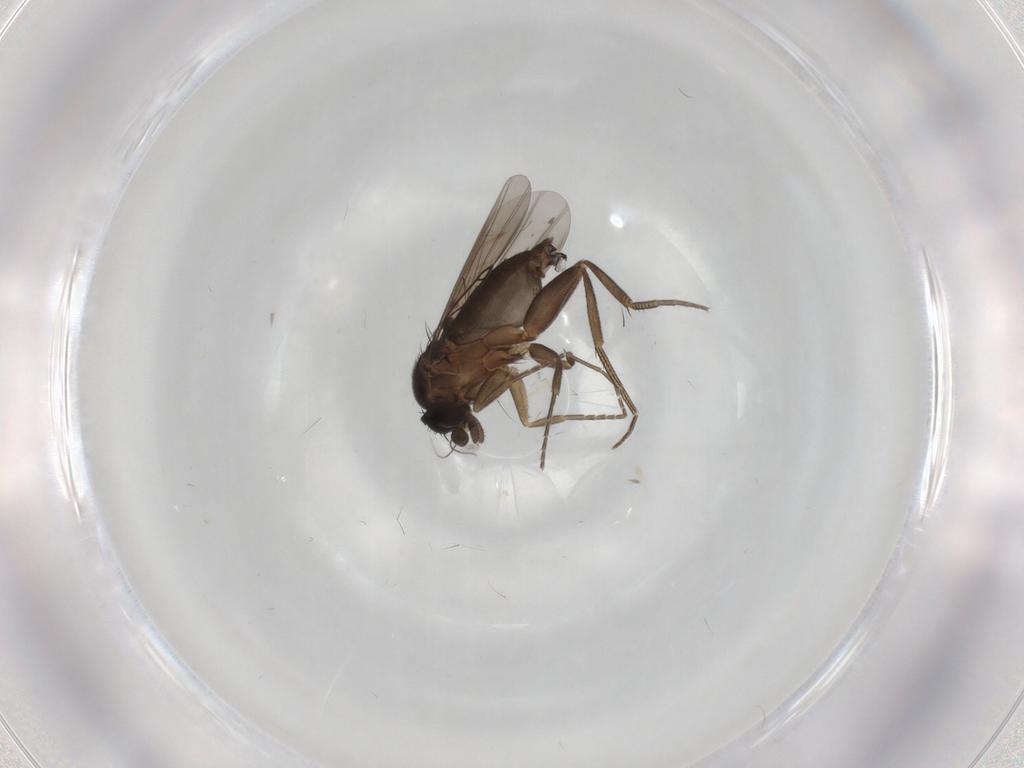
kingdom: Animalia
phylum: Arthropoda
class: Insecta
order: Diptera
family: Phoridae
